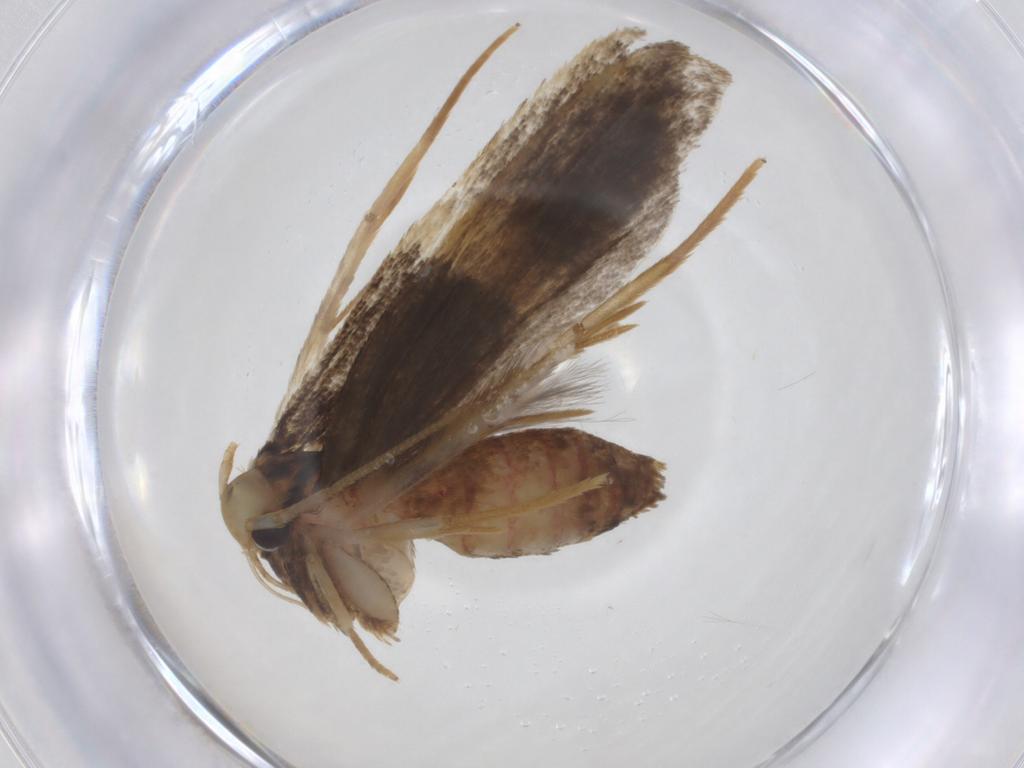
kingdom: Animalia
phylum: Arthropoda
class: Insecta
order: Lepidoptera
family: Lecithoceridae
